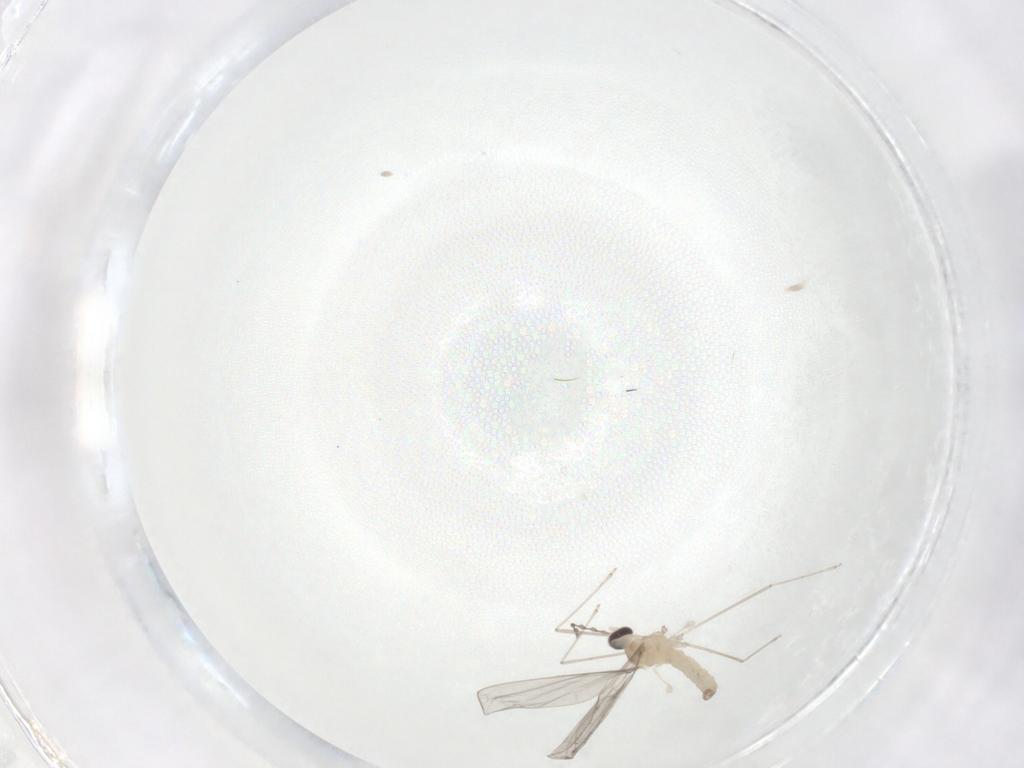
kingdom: Animalia
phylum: Arthropoda
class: Insecta
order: Diptera
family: Cecidomyiidae
